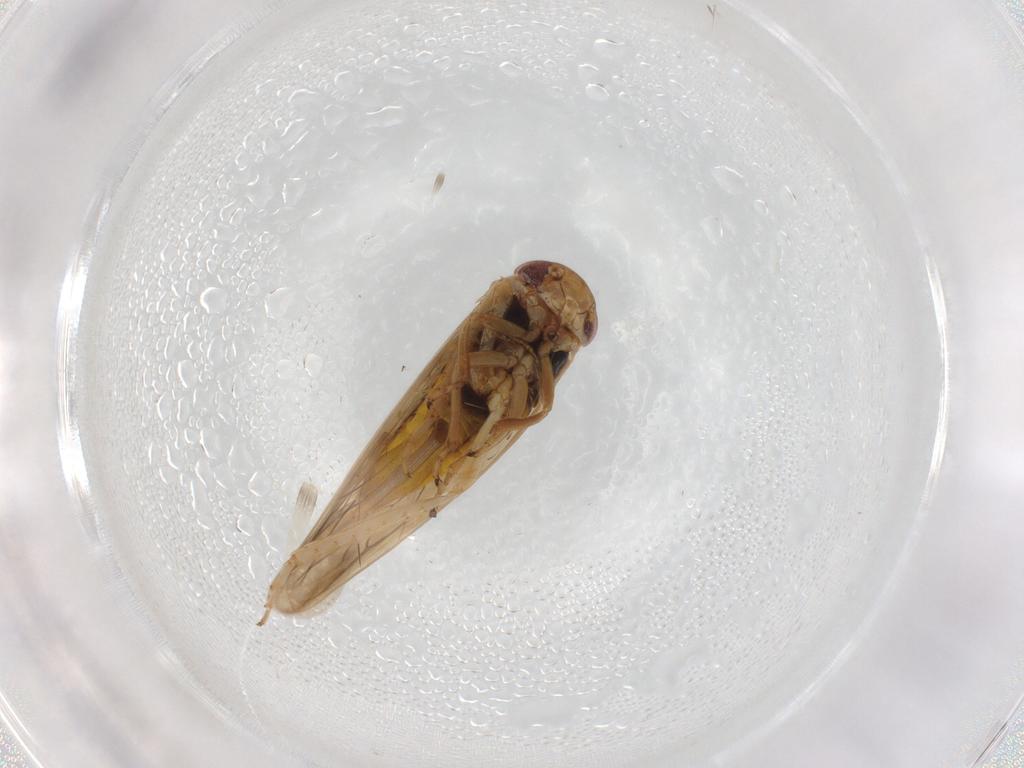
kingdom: Animalia
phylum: Arthropoda
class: Insecta
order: Hemiptera
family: Cicadellidae
